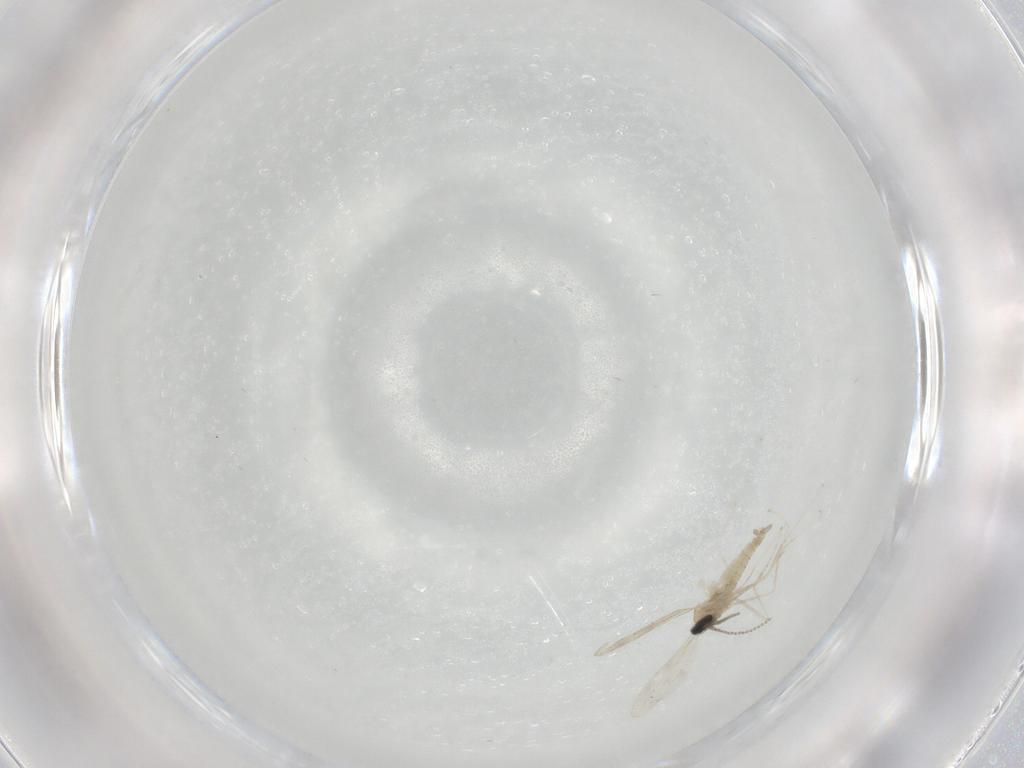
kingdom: Animalia
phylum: Arthropoda
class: Insecta
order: Diptera
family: Cecidomyiidae
